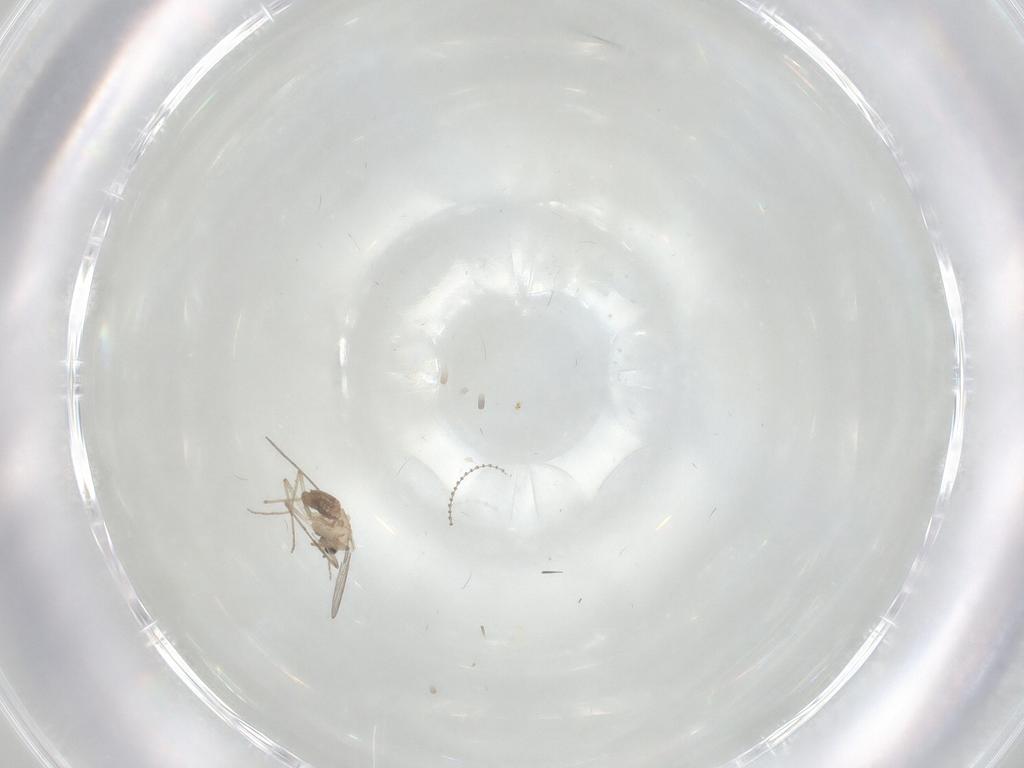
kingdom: Animalia
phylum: Arthropoda
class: Insecta
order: Diptera
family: Chironomidae
